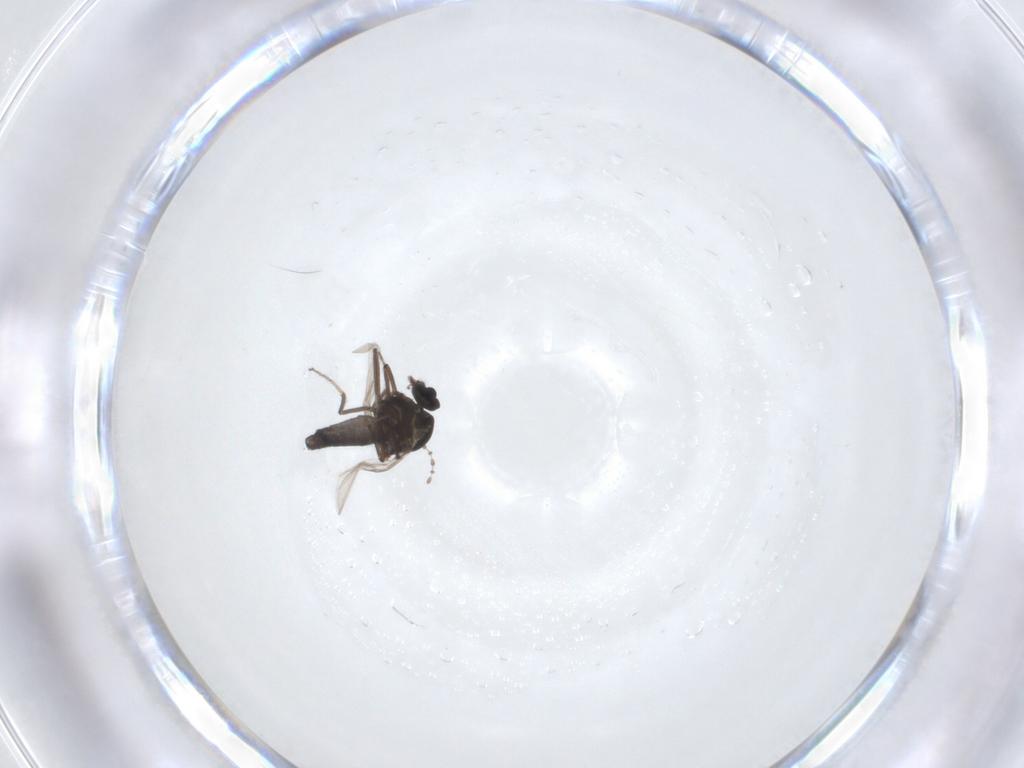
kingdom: Animalia
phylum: Arthropoda
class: Insecta
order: Diptera
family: Ceratopogonidae
